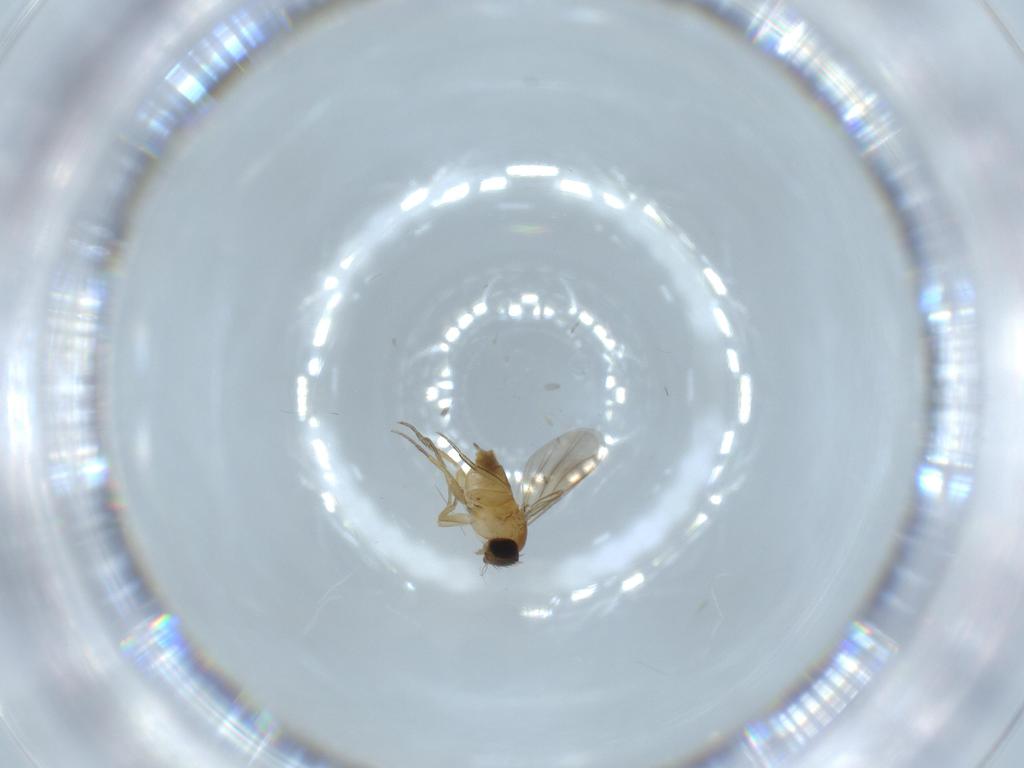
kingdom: Animalia
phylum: Arthropoda
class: Insecta
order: Diptera
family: Phoridae
